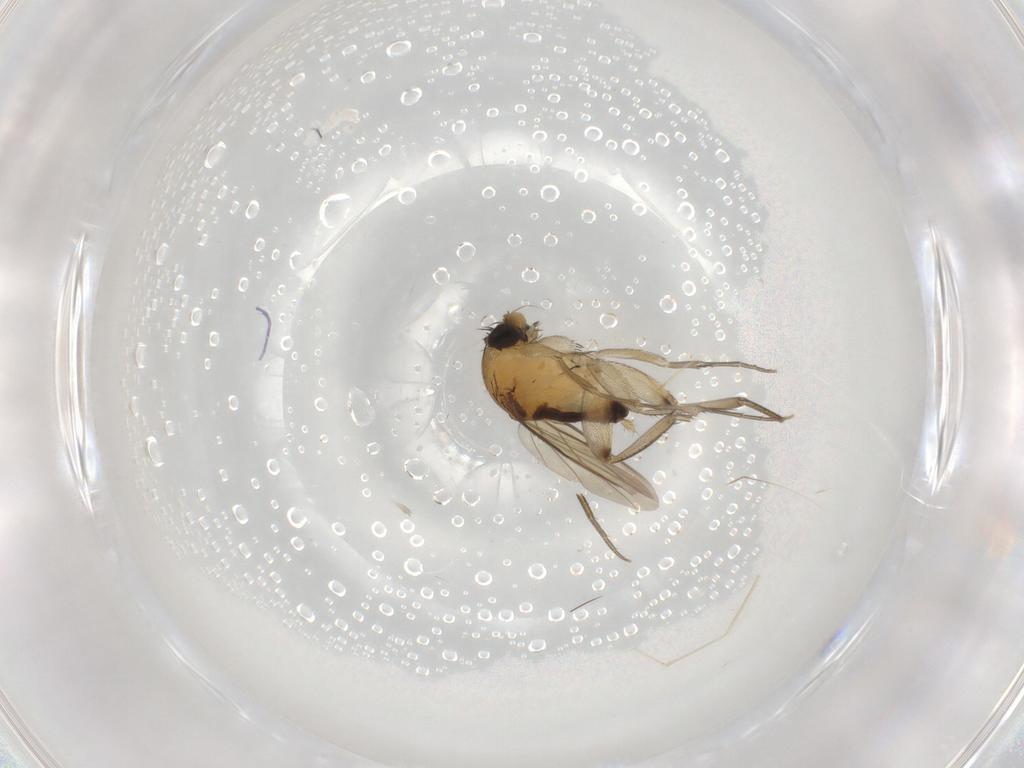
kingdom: Animalia
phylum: Arthropoda
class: Insecta
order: Diptera
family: Phoridae
